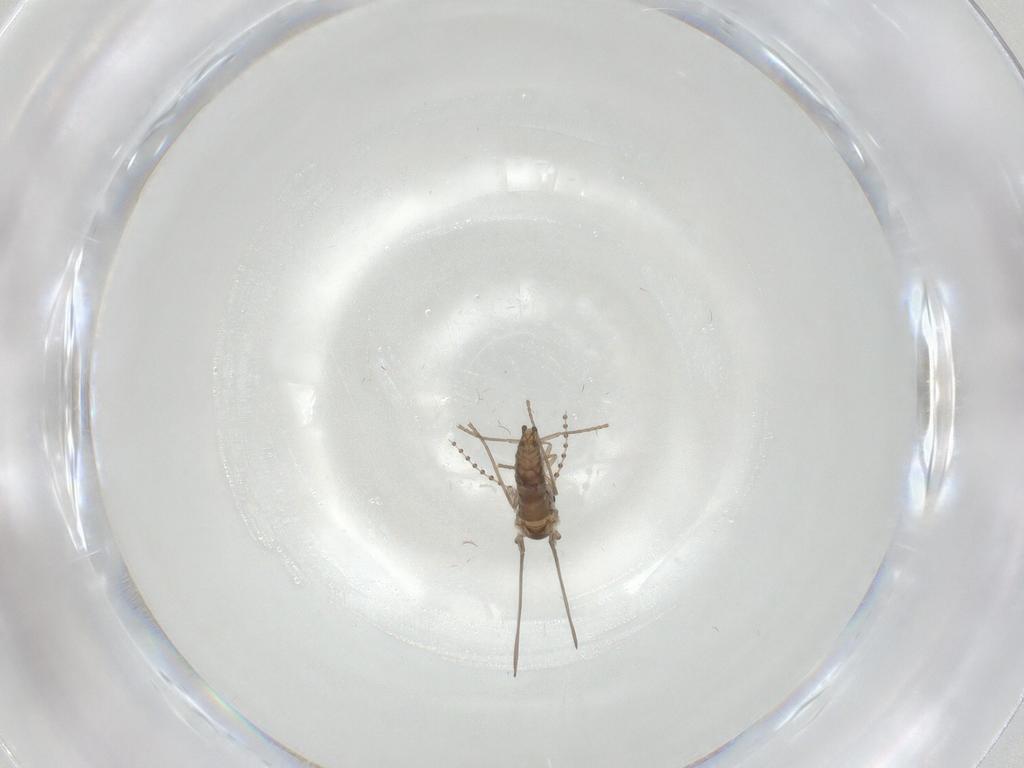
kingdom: Animalia
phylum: Arthropoda
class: Insecta
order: Diptera
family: Psychodidae
